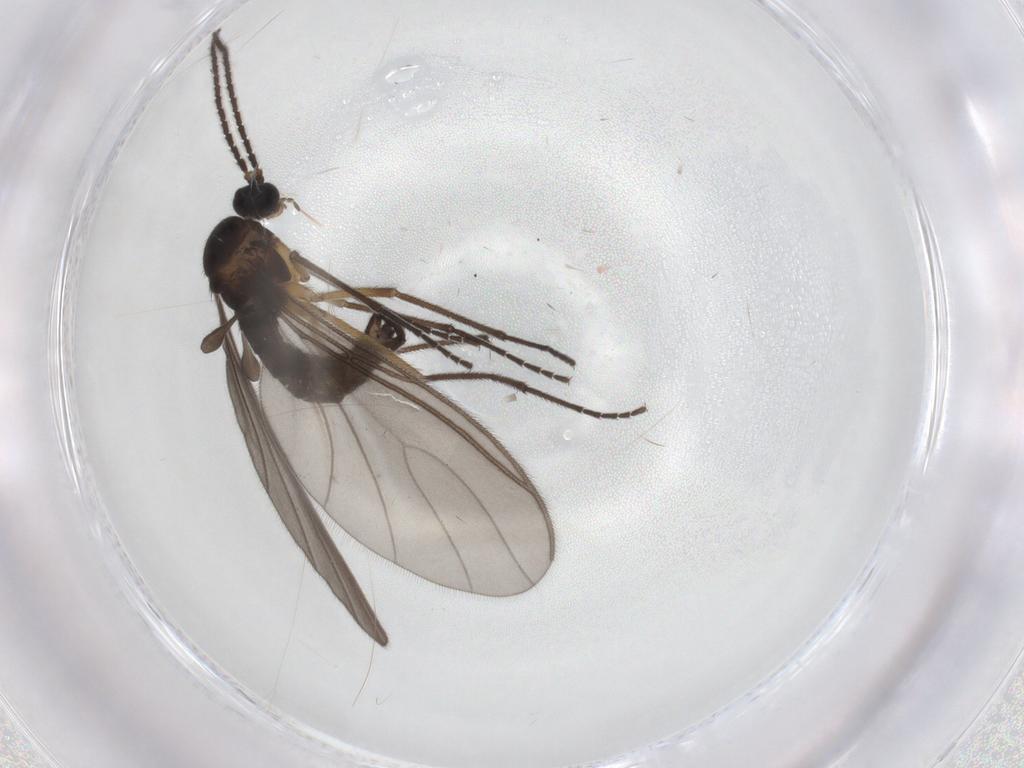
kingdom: Animalia
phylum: Arthropoda
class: Insecta
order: Diptera
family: Sciaridae
